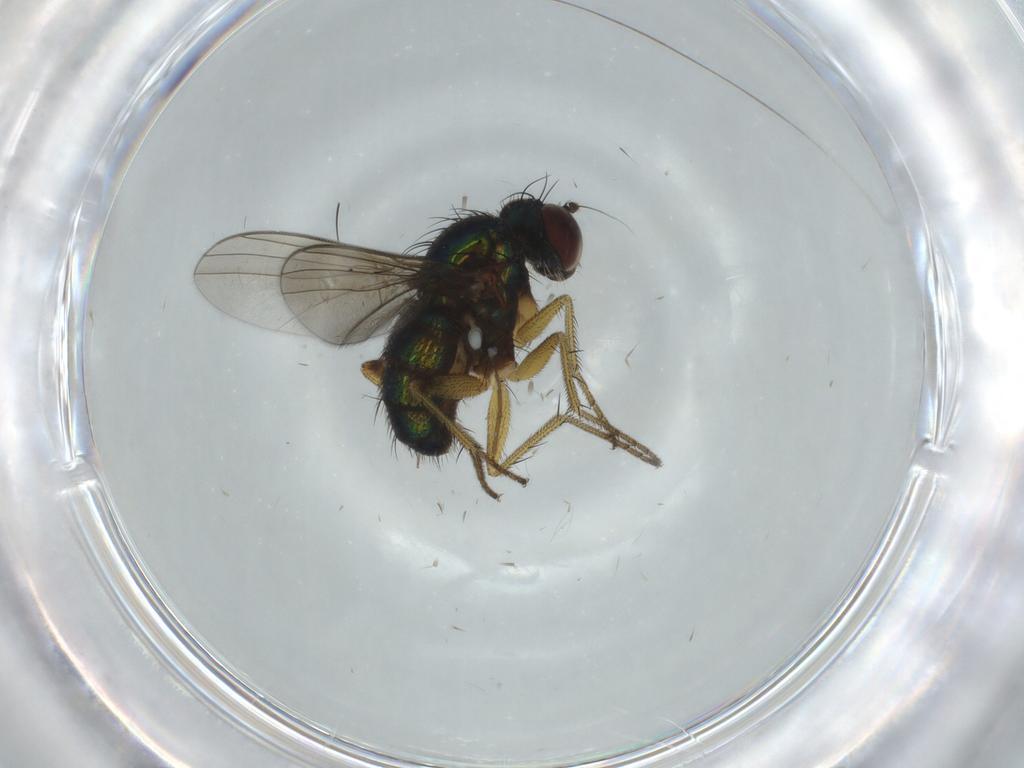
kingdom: Animalia
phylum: Arthropoda
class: Insecta
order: Diptera
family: Dolichopodidae
